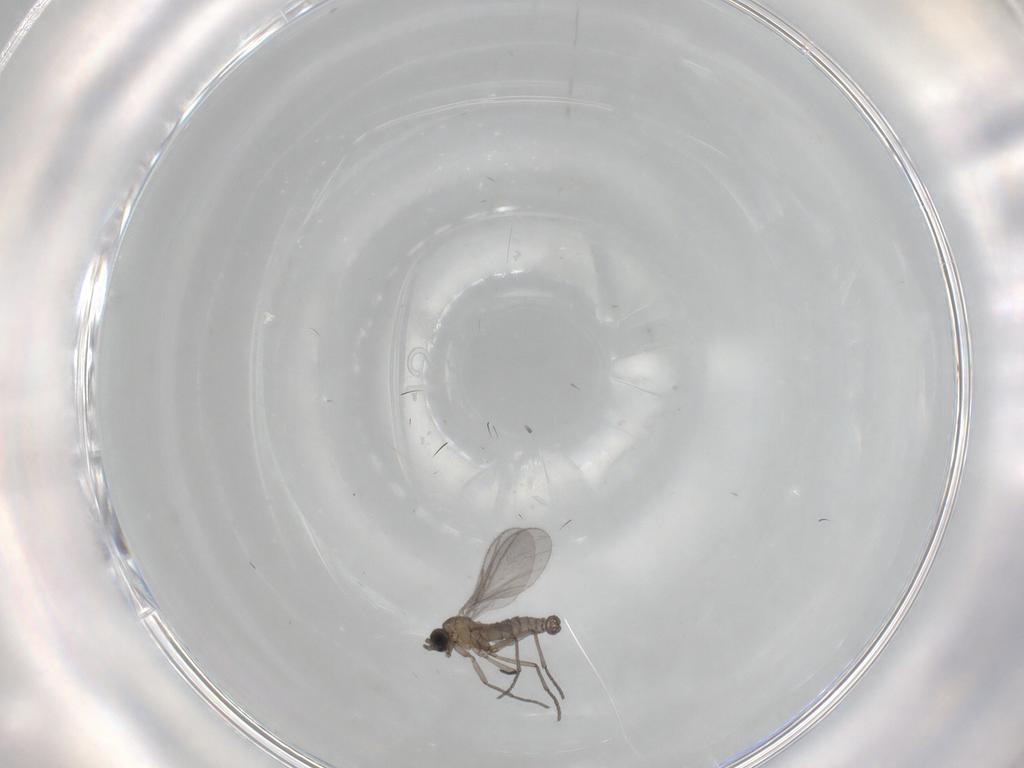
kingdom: Animalia
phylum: Arthropoda
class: Insecta
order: Diptera
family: Sciaridae
